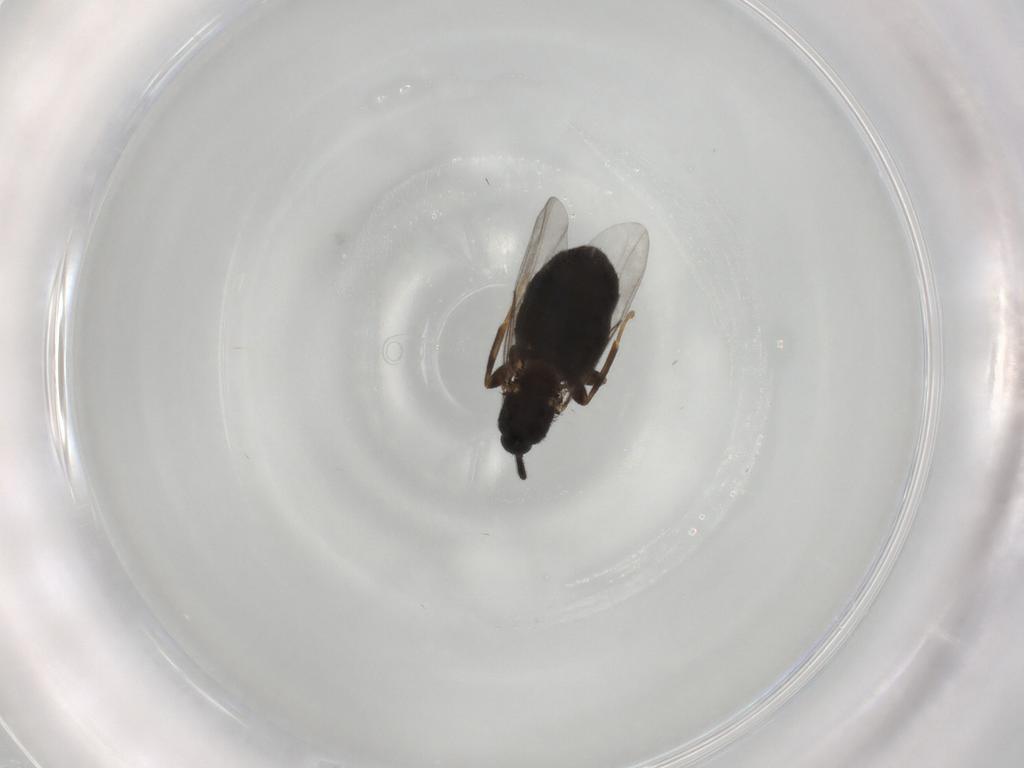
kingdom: Animalia
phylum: Arthropoda
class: Insecta
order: Diptera
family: Scatopsidae
